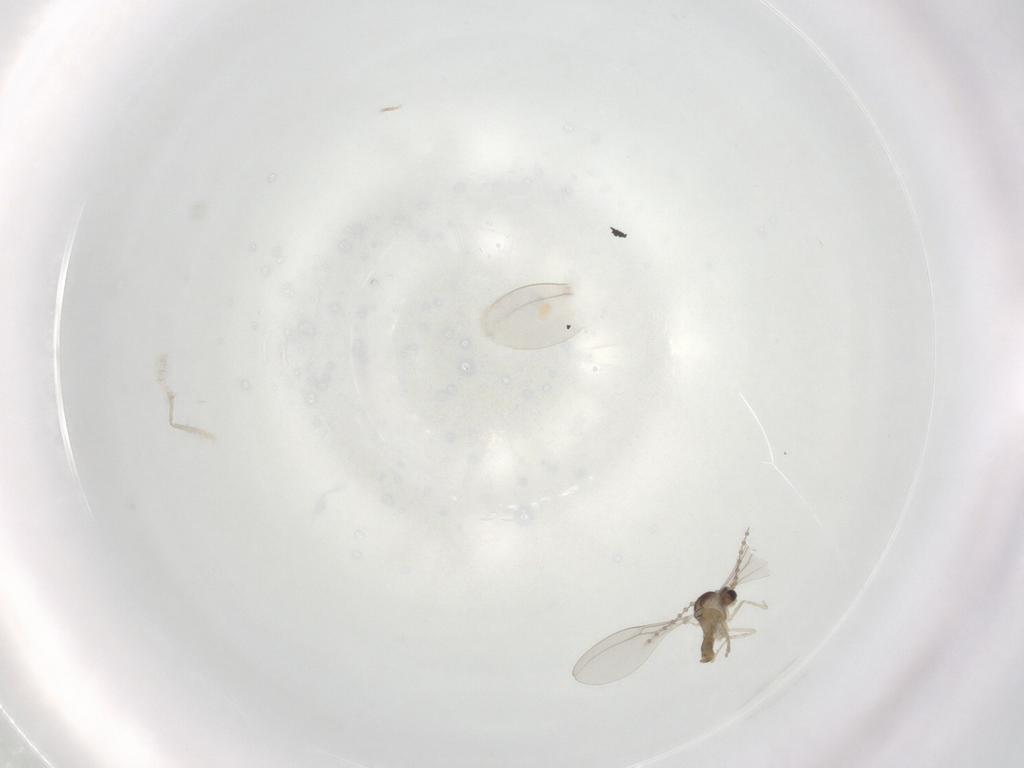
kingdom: Animalia
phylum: Arthropoda
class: Insecta
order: Diptera
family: Cecidomyiidae
